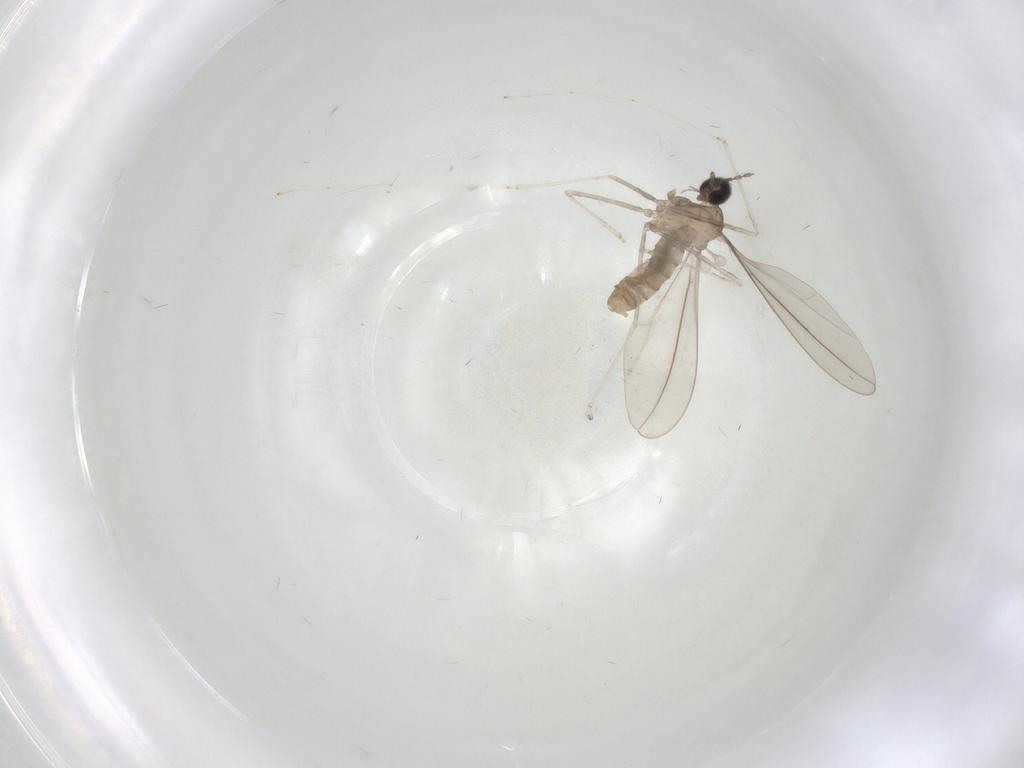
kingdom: Animalia
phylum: Arthropoda
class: Insecta
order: Diptera
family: Cecidomyiidae
